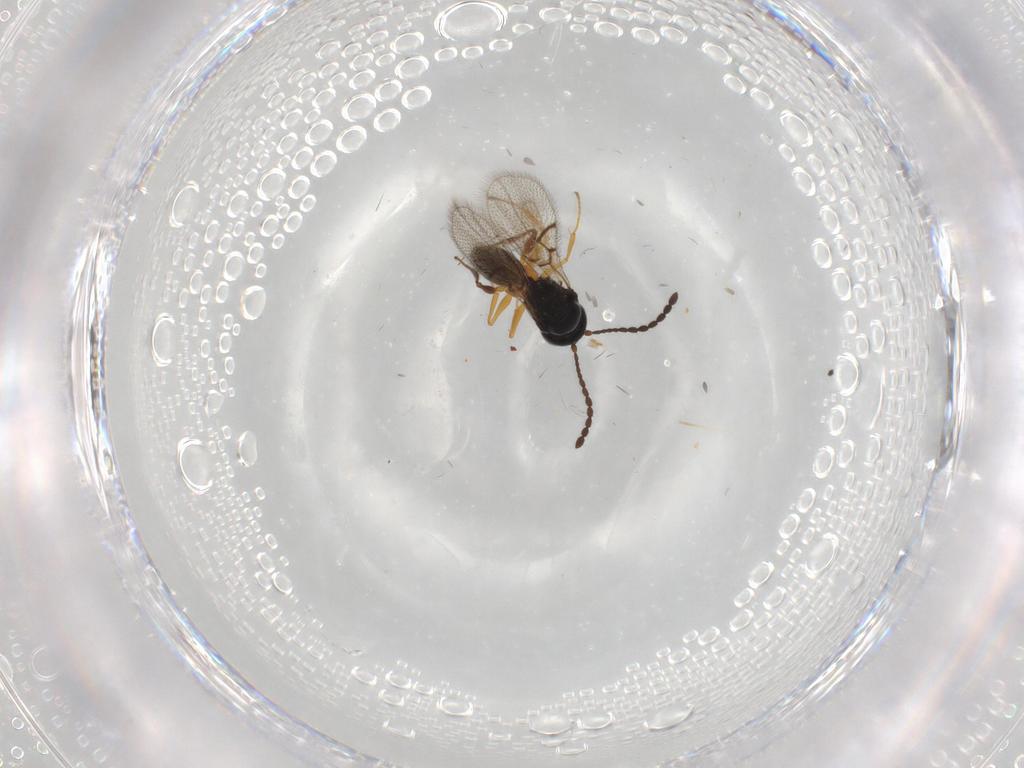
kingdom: Animalia
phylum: Arthropoda
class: Insecta
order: Hymenoptera
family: Figitidae
